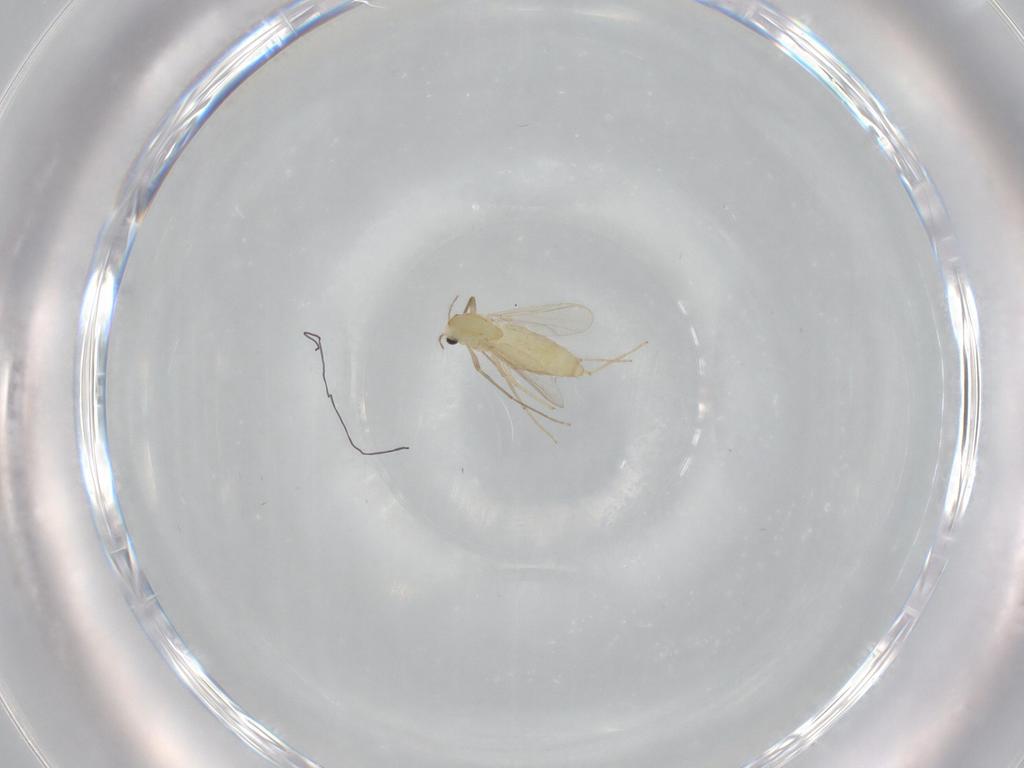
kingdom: Animalia
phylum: Arthropoda
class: Insecta
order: Diptera
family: Chironomidae
